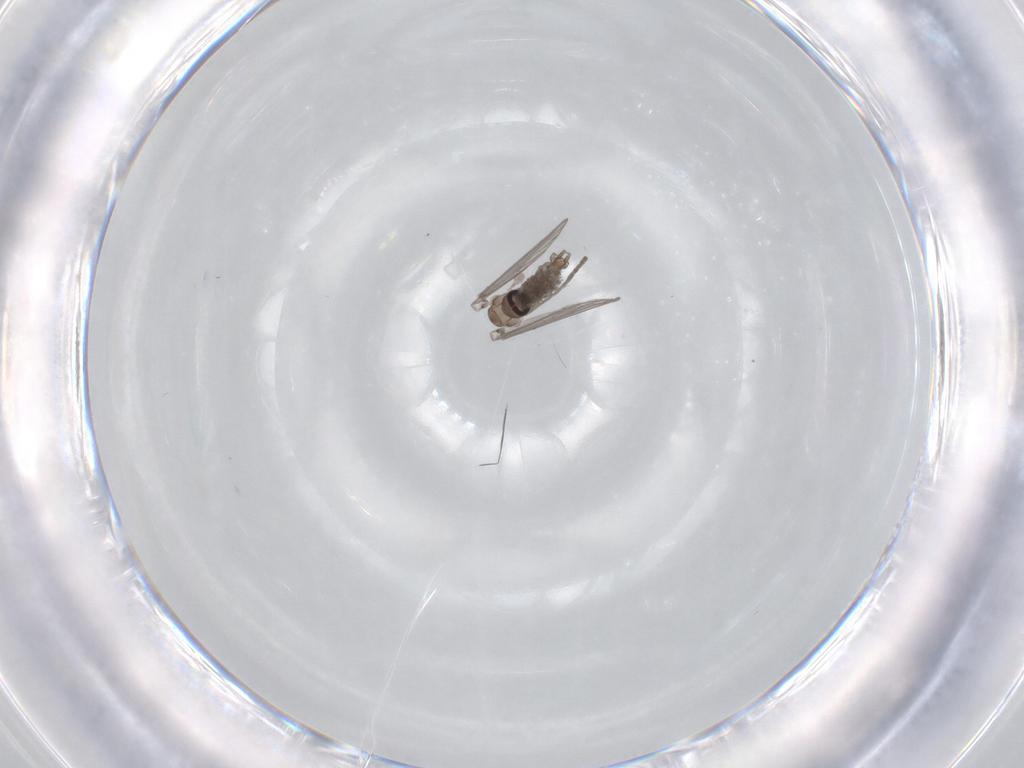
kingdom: Animalia
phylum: Arthropoda
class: Insecta
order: Diptera
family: Psychodidae
